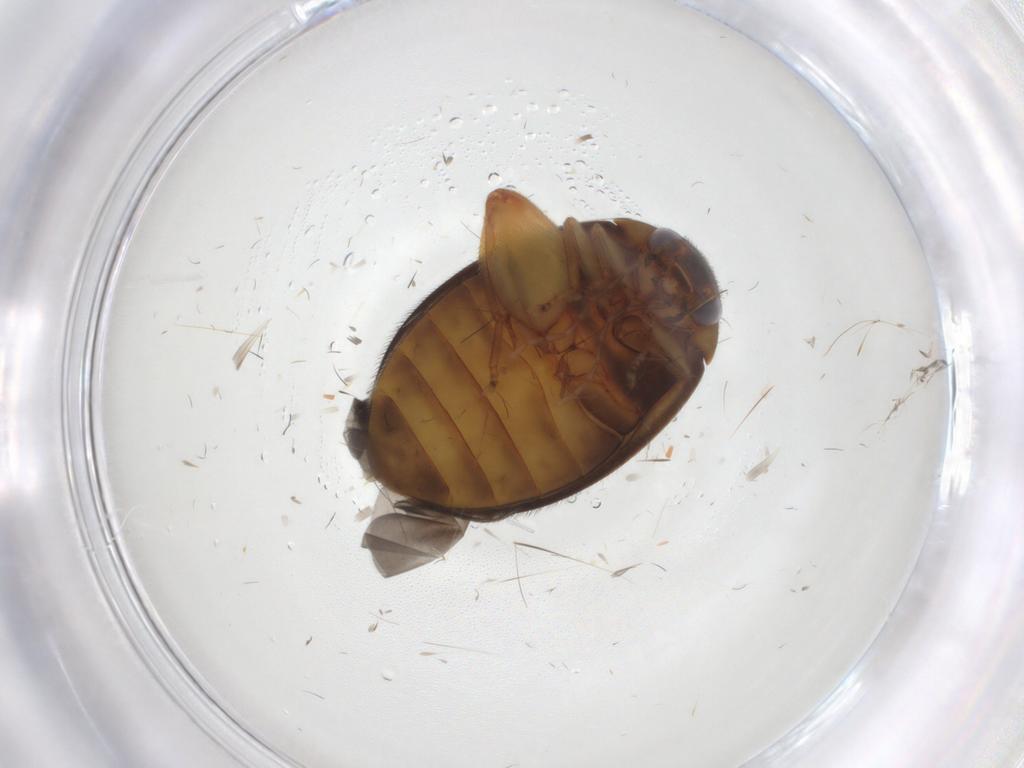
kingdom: Animalia
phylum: Arthropoda
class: Insecta
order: Coleoptera
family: Scirtidae
